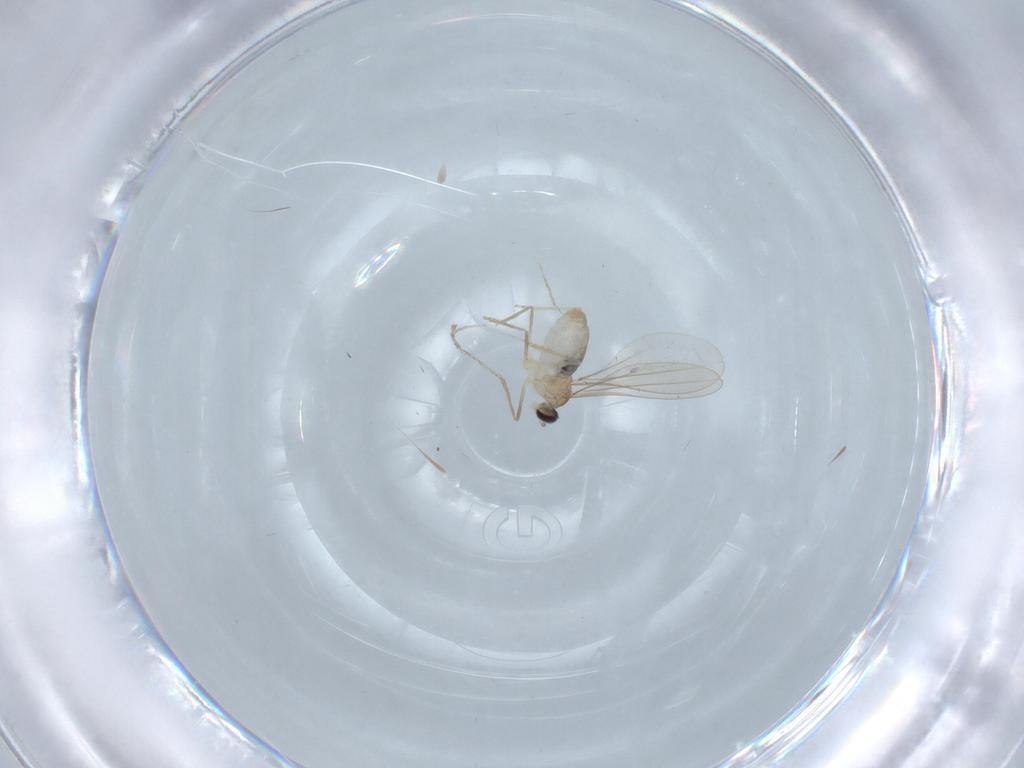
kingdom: Animalia
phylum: Arthropoda
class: Insecta
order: Diptera
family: Cecidomyiidae
